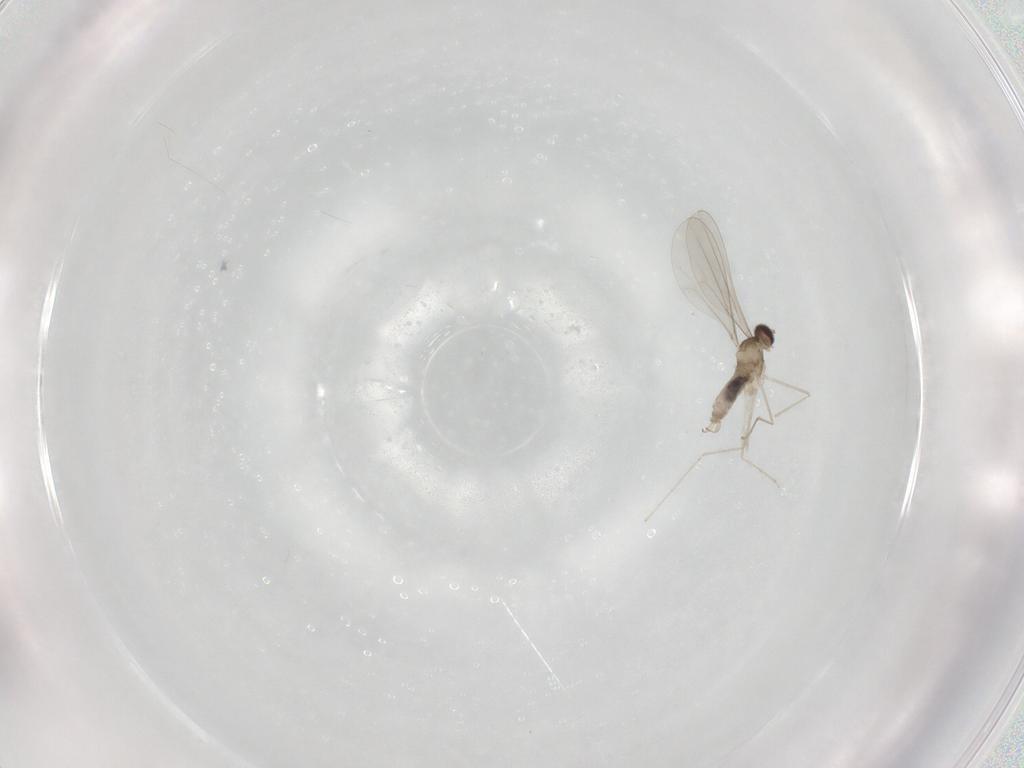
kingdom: Animalia
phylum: Arthropoda
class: Insecta
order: Diptera
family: Cecidomyiidae
